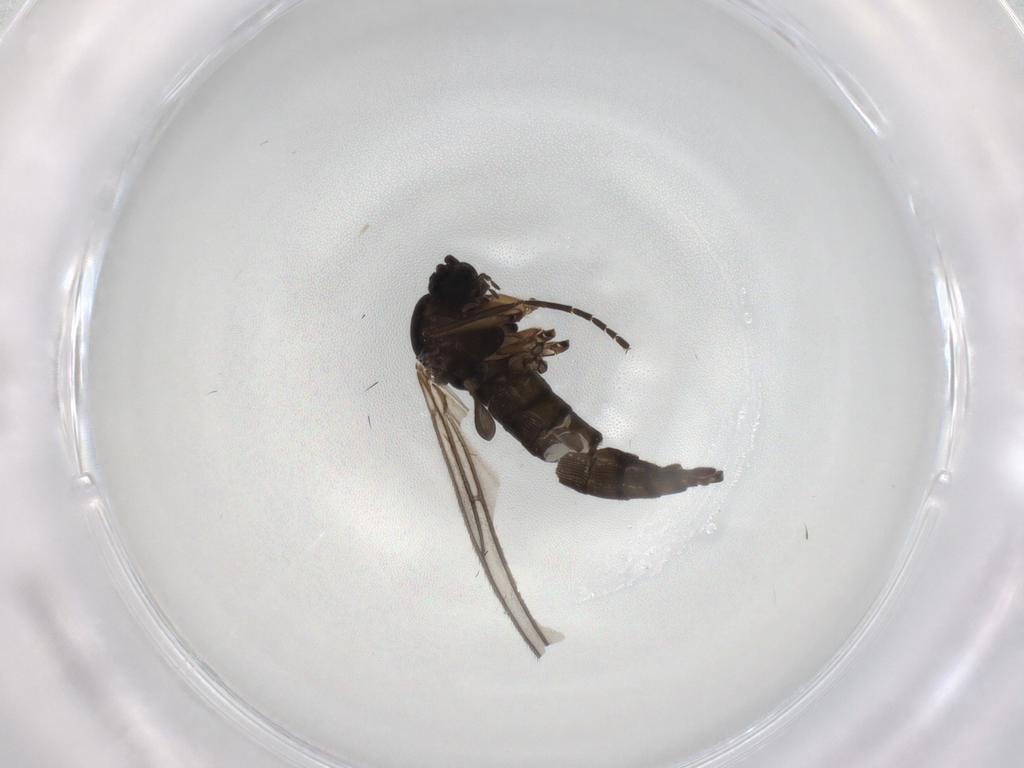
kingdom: Animalia
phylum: Arthropoda
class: Insecta
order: Diptera
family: Sciaridae
